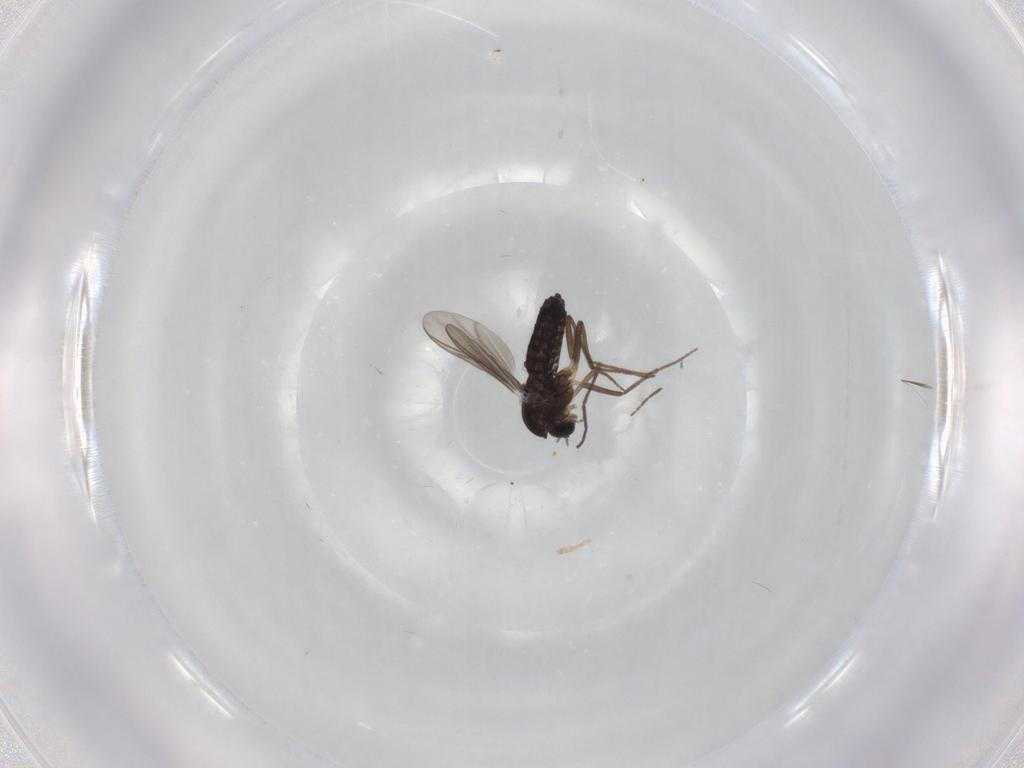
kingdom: Animalia
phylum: Arthropoda
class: Insecta
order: Diptera
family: Chironomidae
